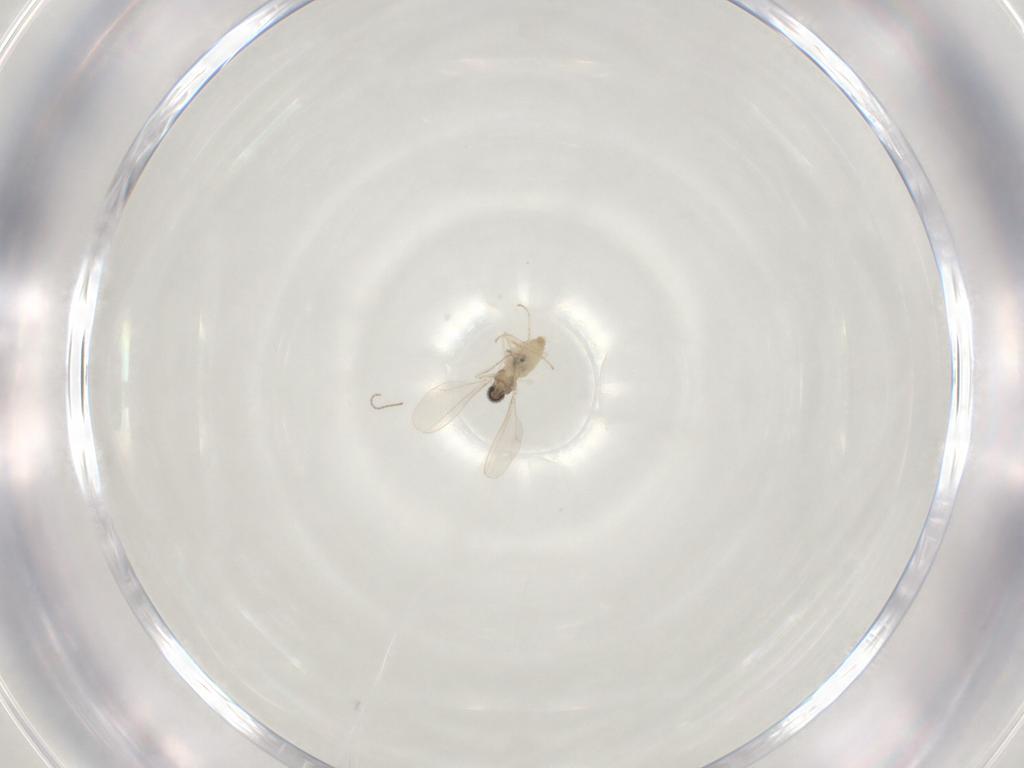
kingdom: Animalia
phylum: Arthropoda
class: Insecta
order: Diptera
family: Cecidomyiidae
